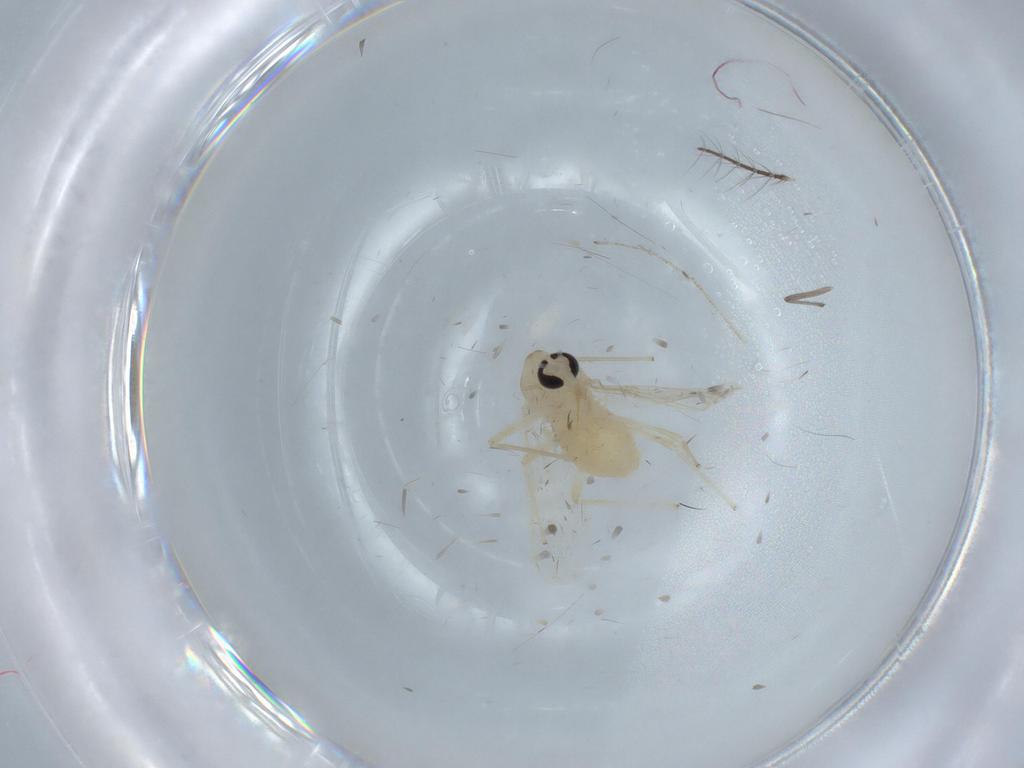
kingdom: Animalia
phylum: Arthropoda
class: Insecta
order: Diptera
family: Chironomidae
